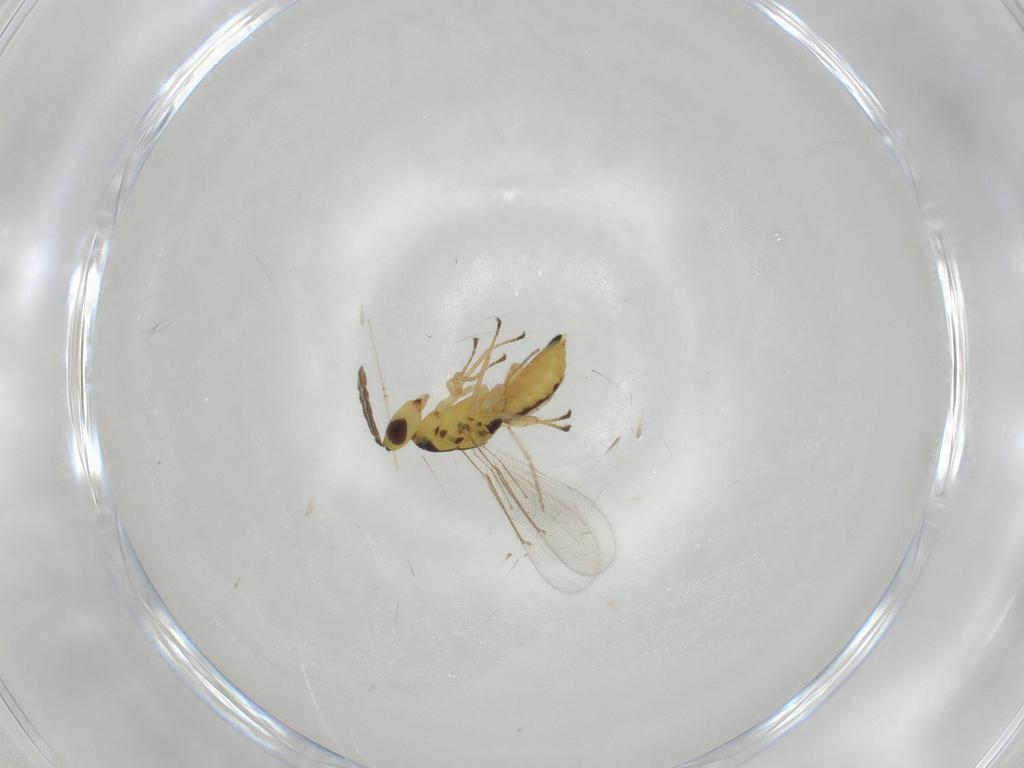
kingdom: Animalia
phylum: Arthropoda
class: Insecta
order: Hymenoptera
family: Eulophidae
